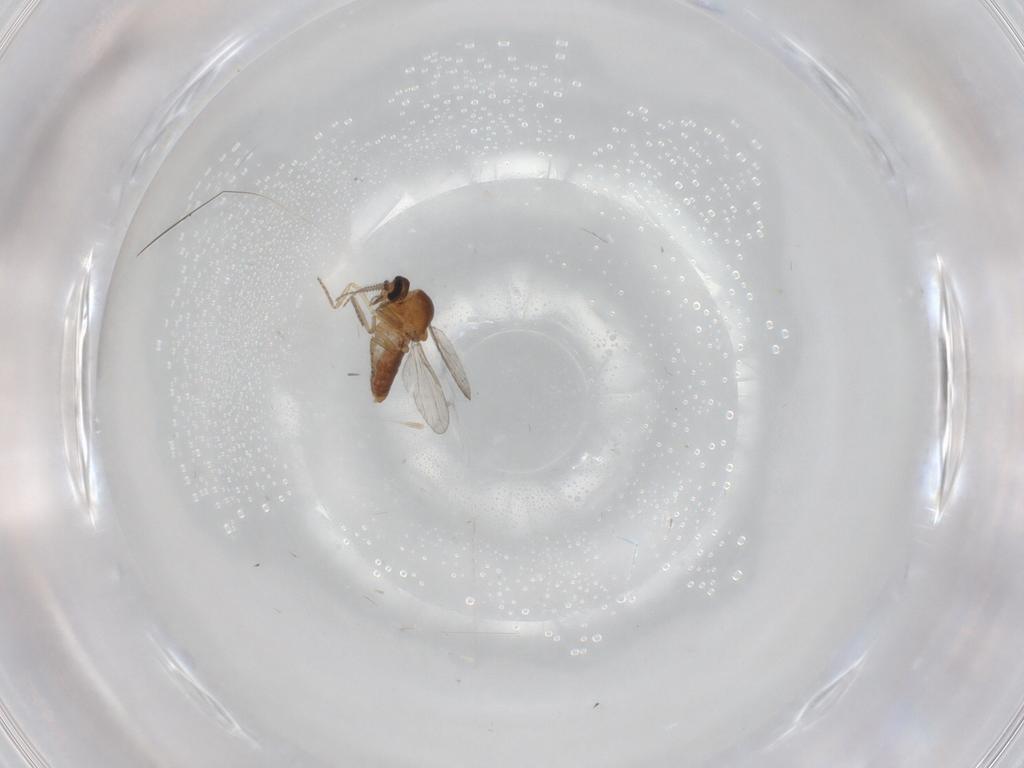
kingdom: Animalia
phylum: Arthropoda
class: Insecta
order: Diptera
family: Ceratopogonidae
